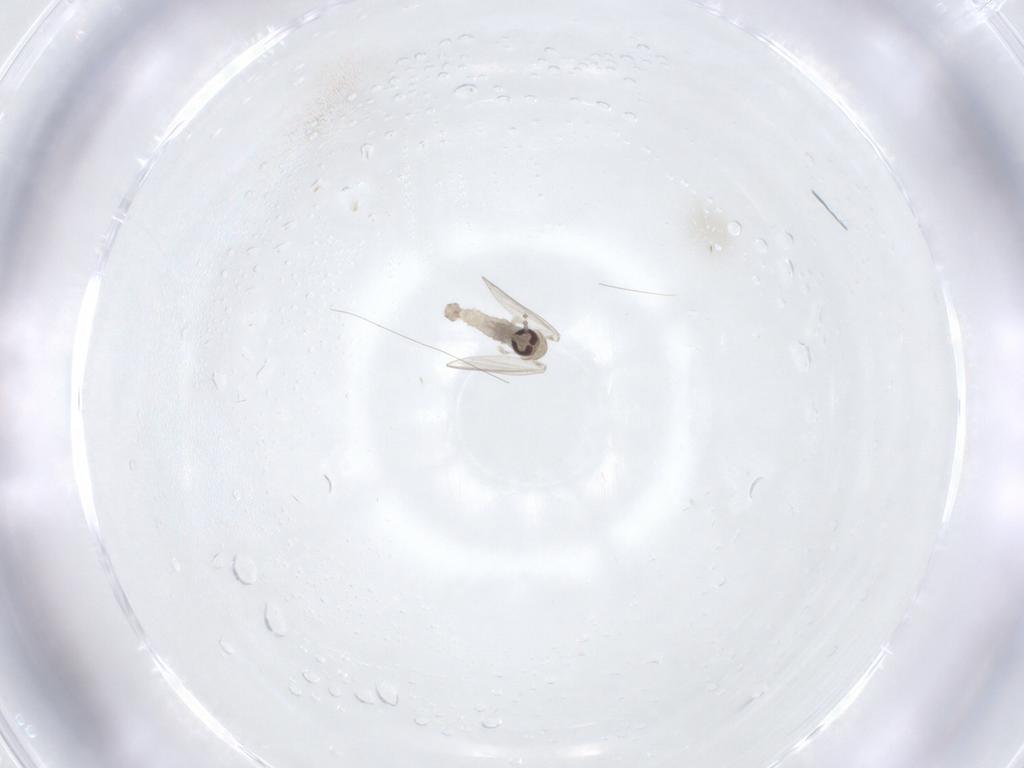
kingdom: Animalia
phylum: Arthropoda
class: Insecta
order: Diptera
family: Psychodidae
